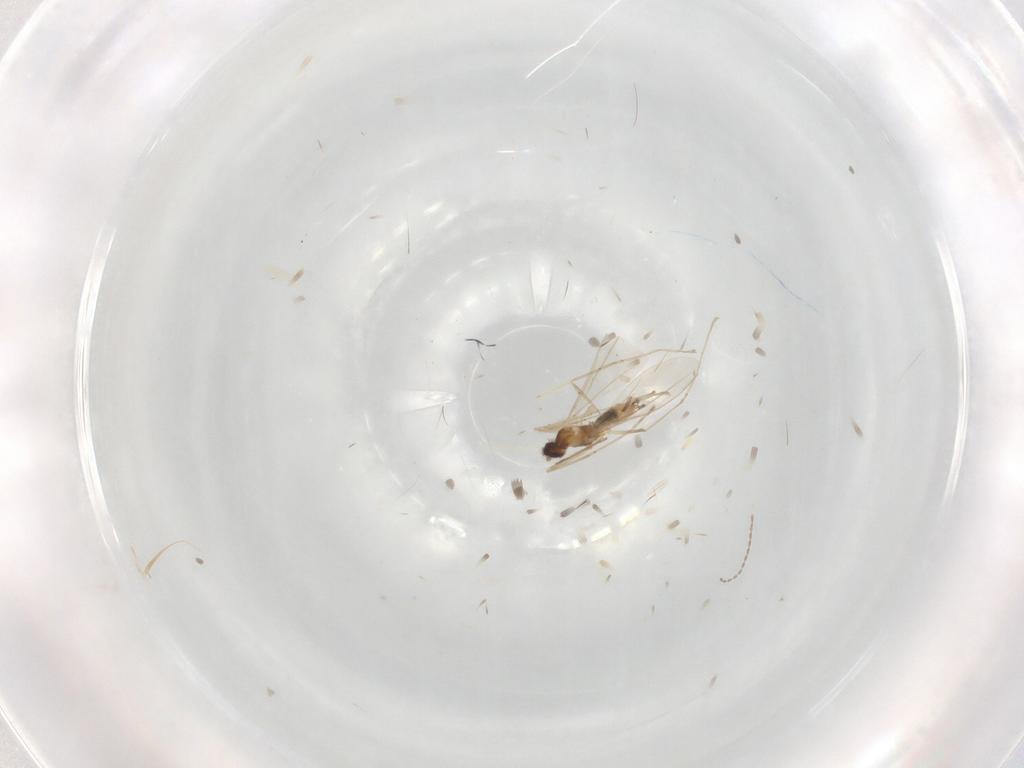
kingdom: Animalia
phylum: Arthropoda
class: Insecta
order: Diptera
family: Cecidomyiidae
